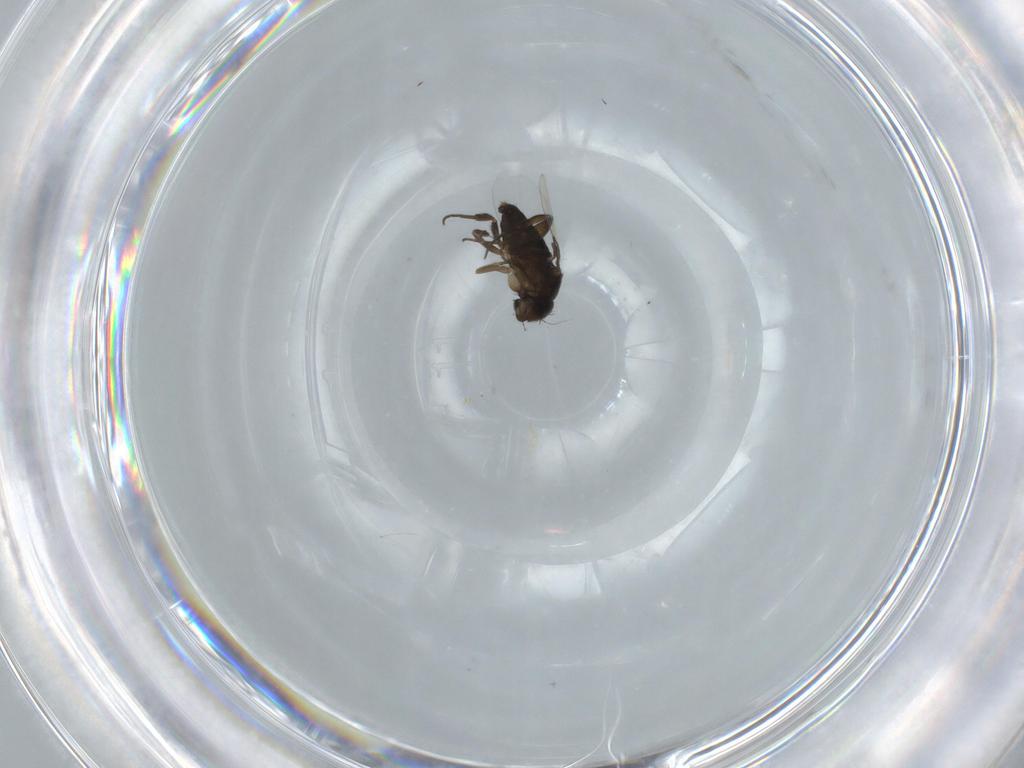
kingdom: Animalia
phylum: Arthropoda
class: Insecta
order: Diptera
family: Phoridae
